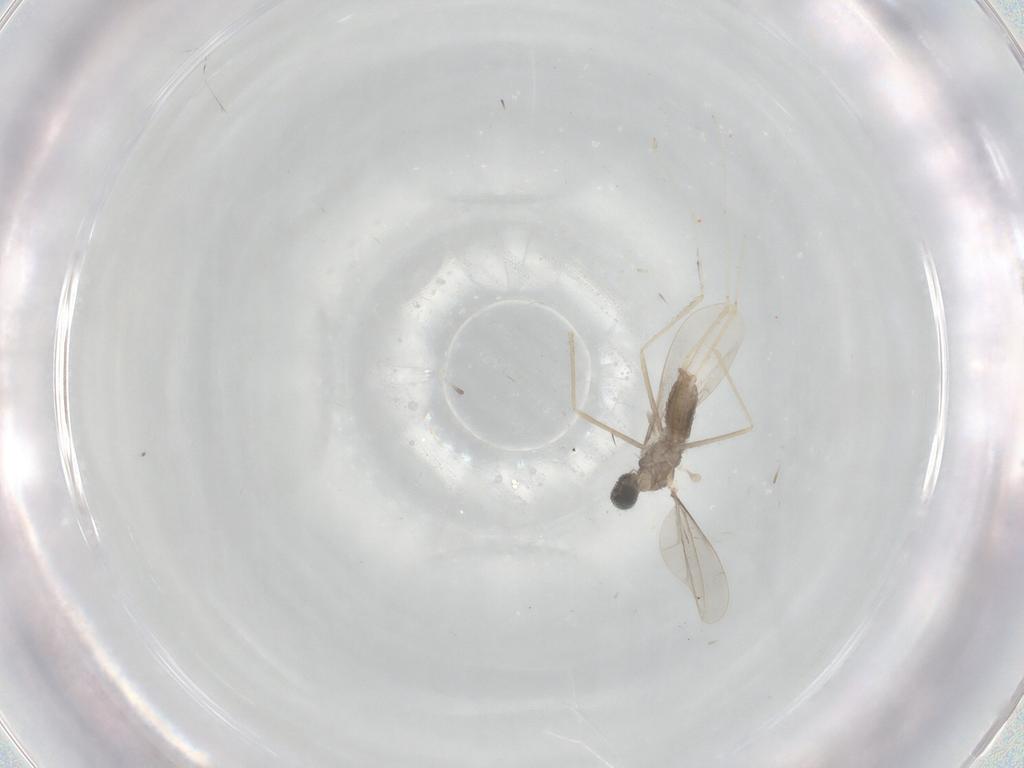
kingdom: Animalia
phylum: Arthropoda
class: Insecta
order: Diptera
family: Cecidomyiidae
